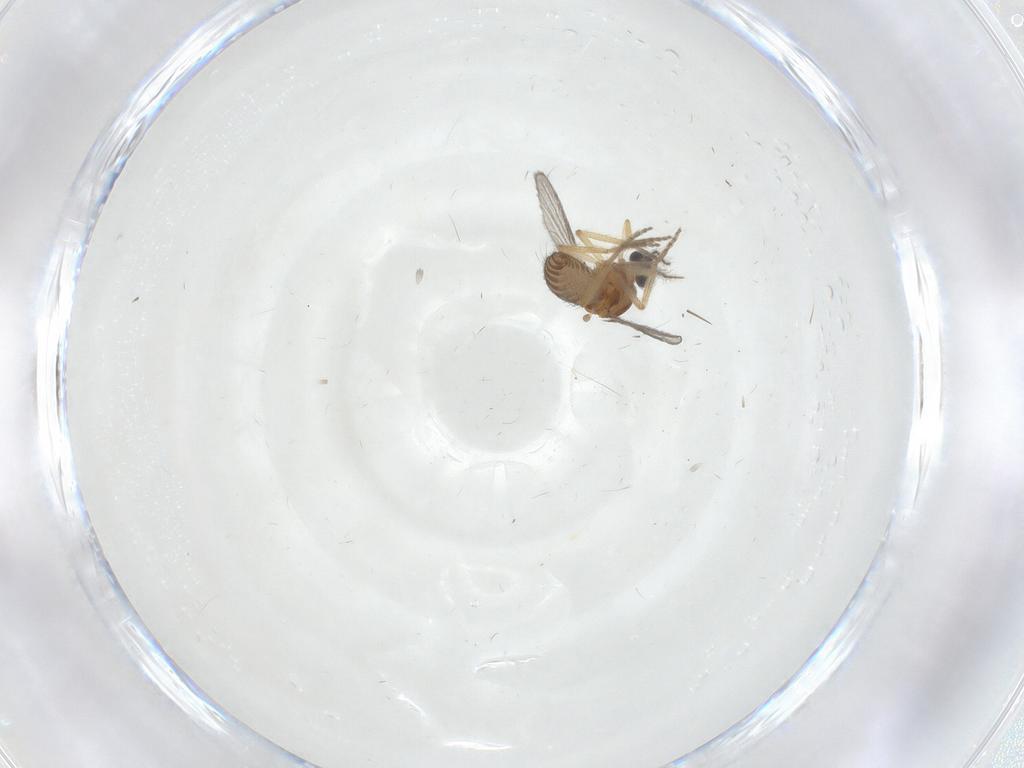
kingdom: Animalia
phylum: Arthropoda
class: Insecta
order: Diptera
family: Ceratopogonidae
